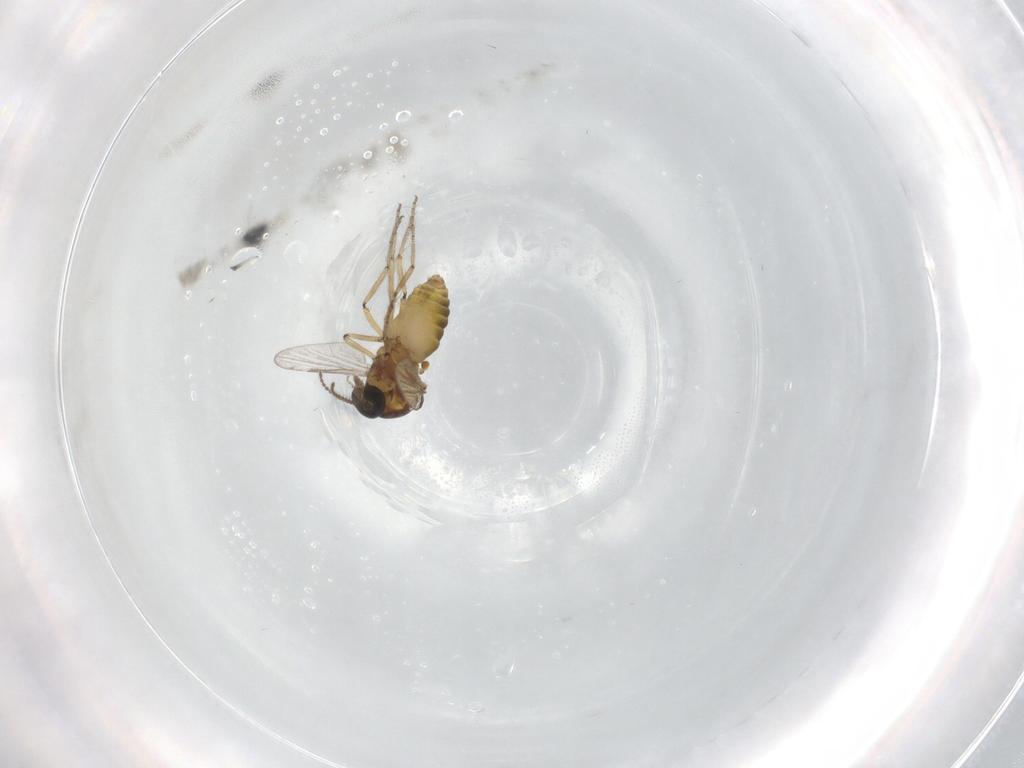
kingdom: Animalia
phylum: Arthropoda
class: Insecta
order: Diptera
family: Ceratopogonidae
